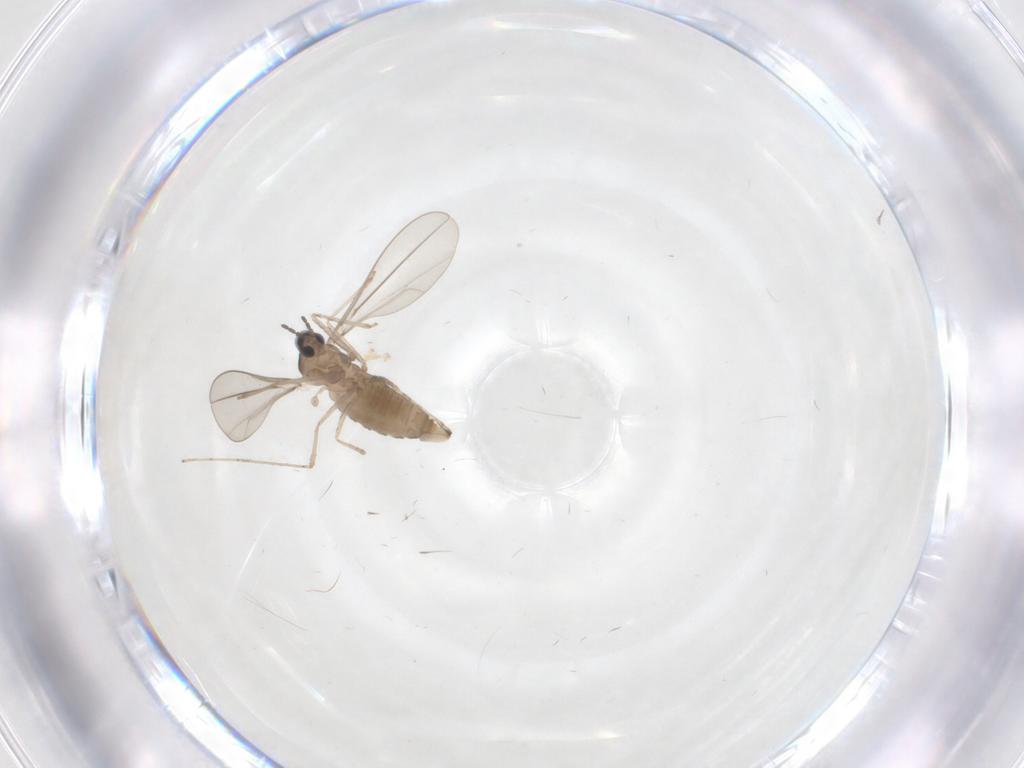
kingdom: Animalia
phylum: Arthropoda
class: Insecta
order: Diptera
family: Cecidomyiidae
